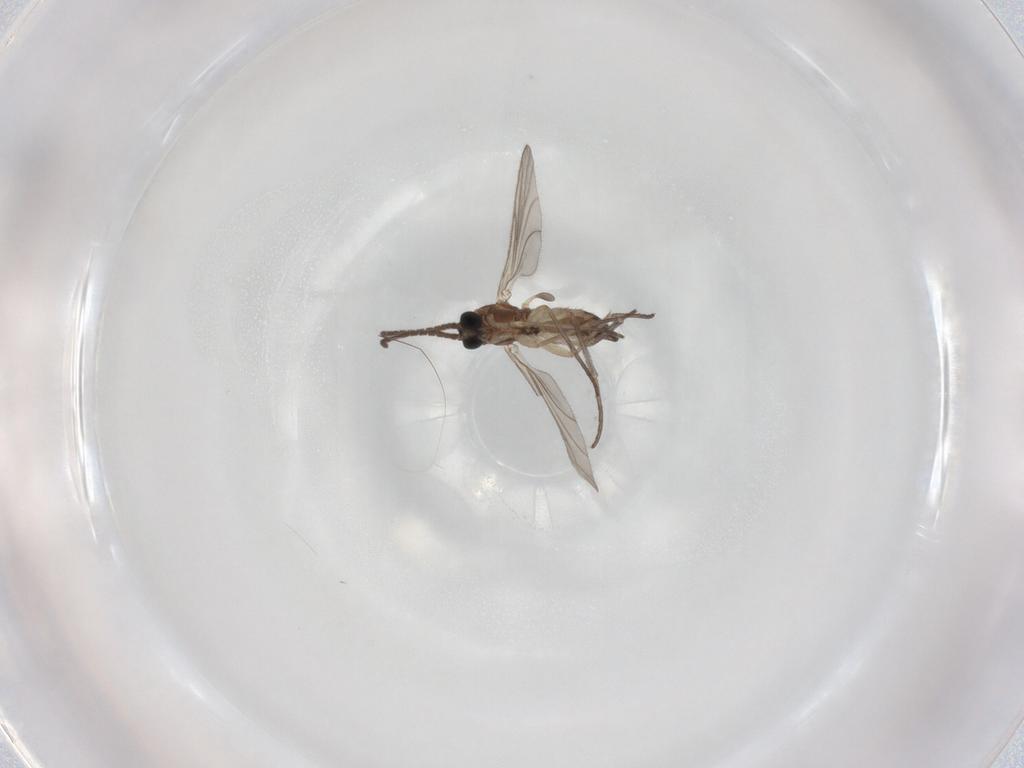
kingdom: Animalia
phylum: Arthropoda
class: Insecta
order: Diptera
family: Sciaridae
